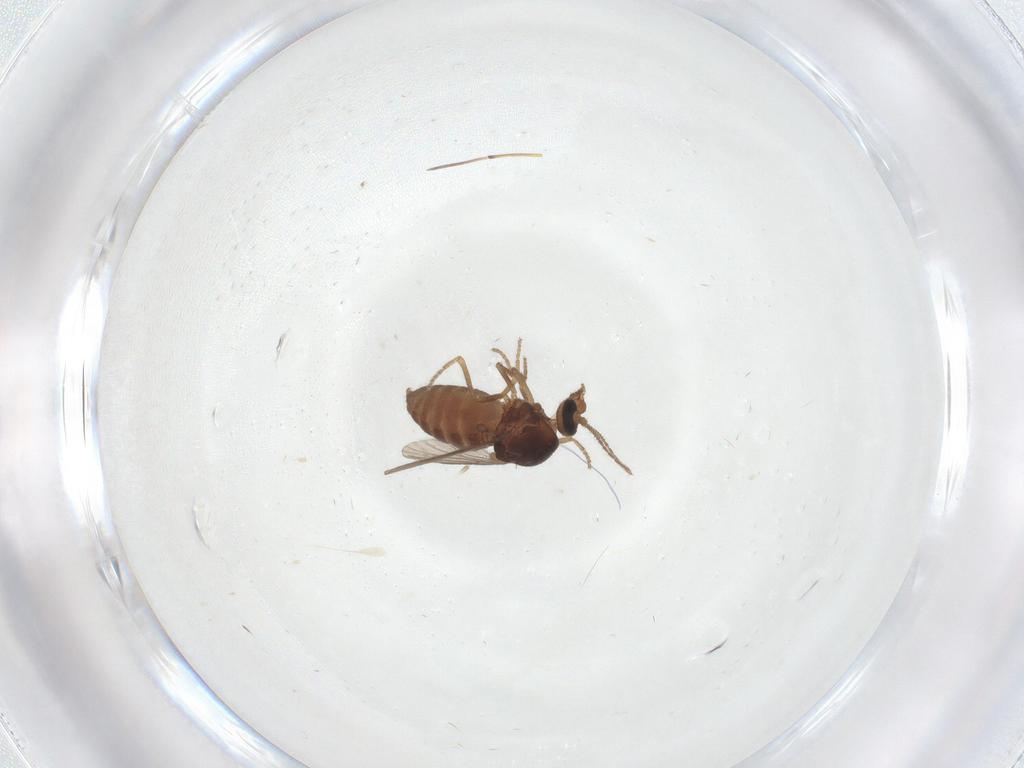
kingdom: Animalia
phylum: Arthropoda
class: Insecta
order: Diptera
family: Ceratopogonidae
